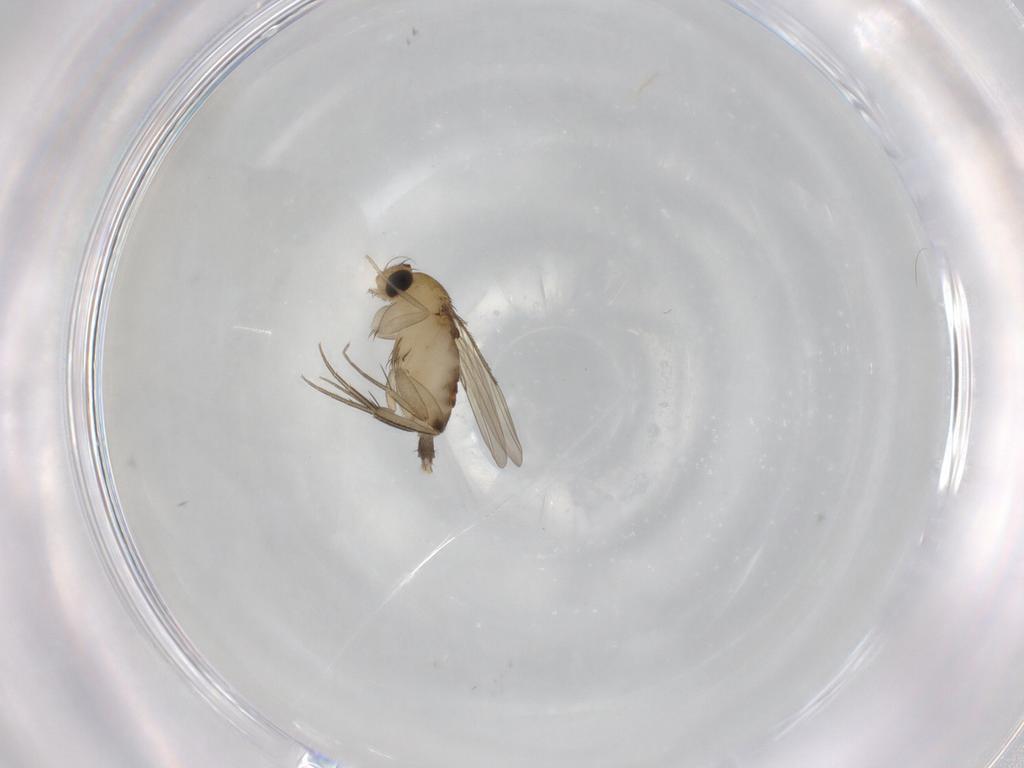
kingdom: Animalia
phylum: Arthropoda
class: Insecta
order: Diptera
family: Phoridae
